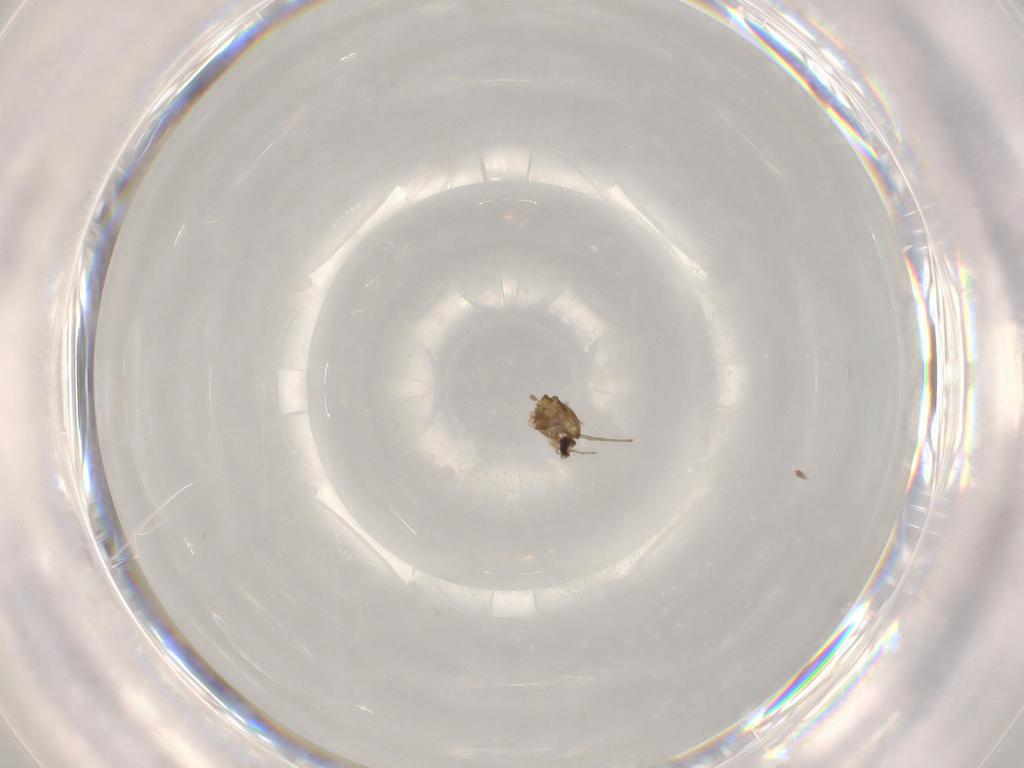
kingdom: Animalia
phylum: Arthropoda
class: Insecta
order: Diptera
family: Chironomidae
